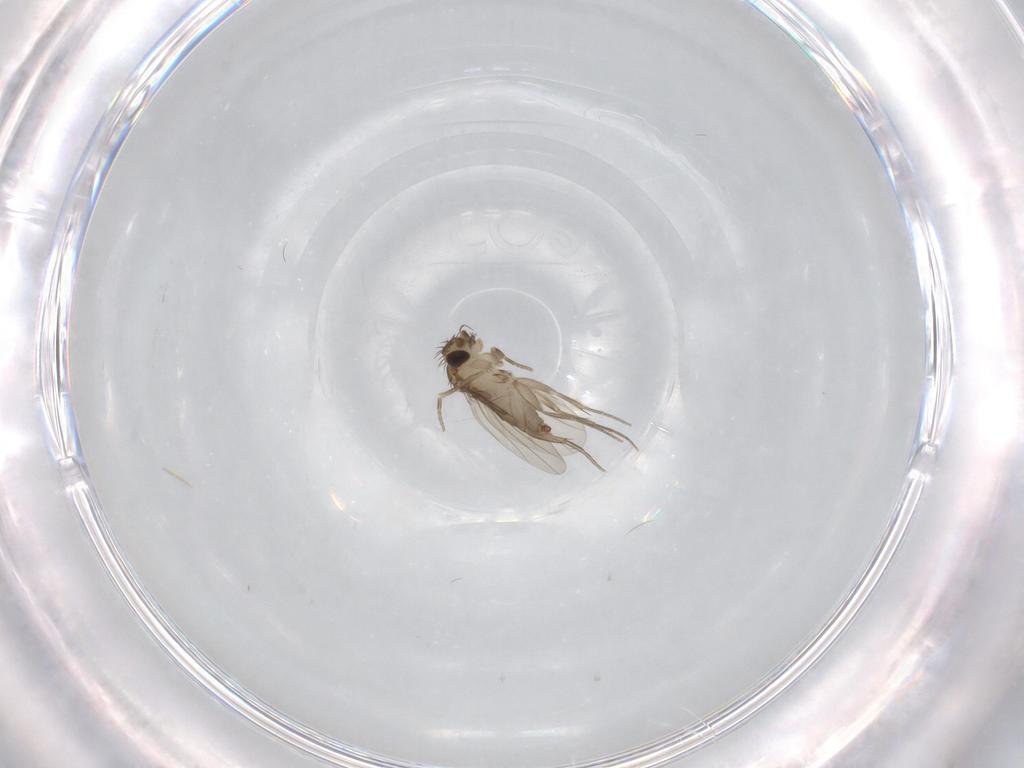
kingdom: Animalia
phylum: Arthropoda
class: Insecta
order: Diptera
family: Phoridae
